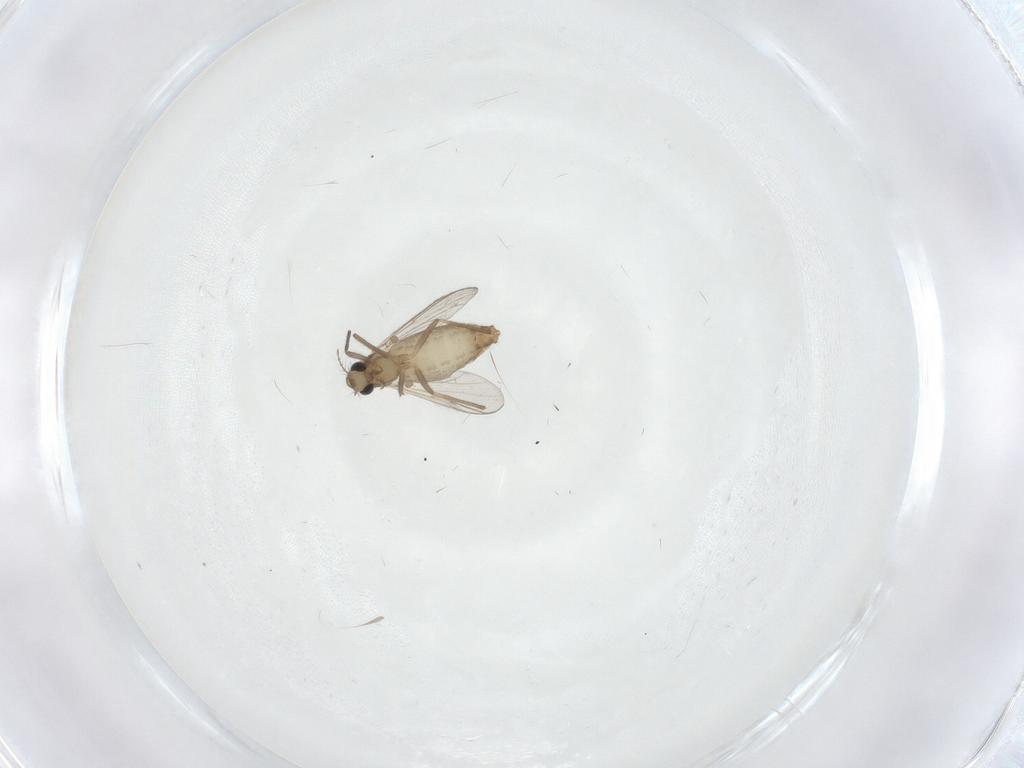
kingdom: Animalia
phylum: Arthropoda
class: Insecta
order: Diptera
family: Chironomidae
